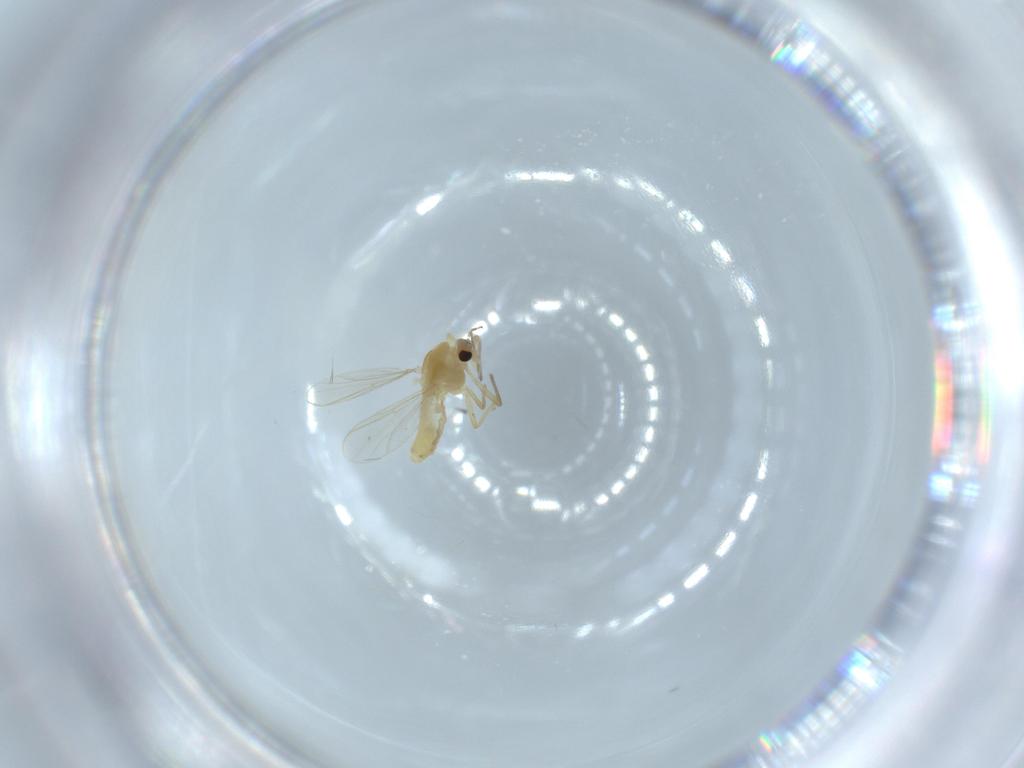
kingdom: Animalia
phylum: Arthropoda
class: Insecta
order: Diptera
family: Chironomidae
